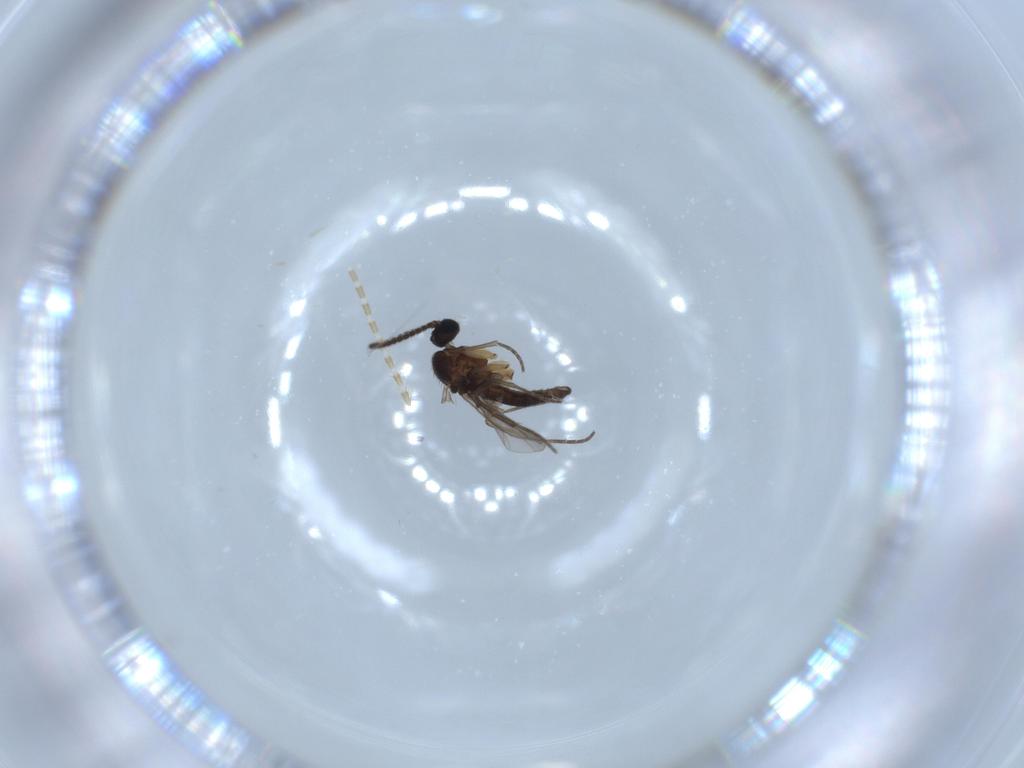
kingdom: Animalia
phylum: Arthropoda
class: Insecta
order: Diptera
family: Sciaridae
